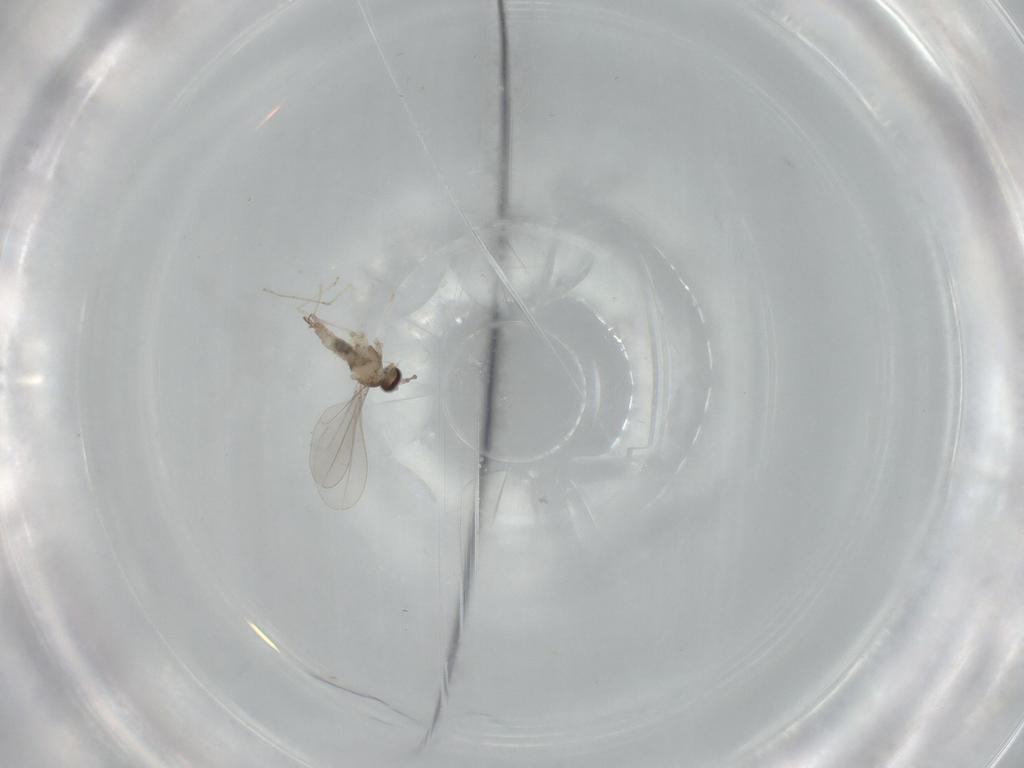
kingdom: Animalia
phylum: Arthropoda
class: Insecta
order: Diptera
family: Cecidomyiidae
